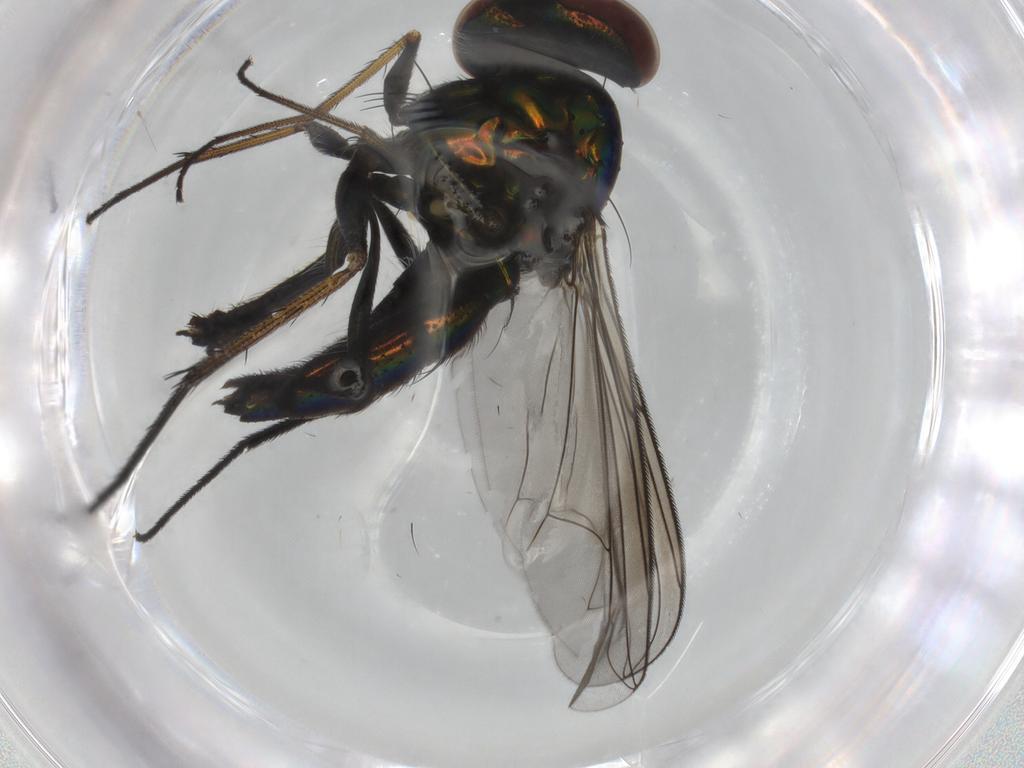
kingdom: Animalia
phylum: Arthropoda
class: Insecta
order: Diptera
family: Dolichopodidae
